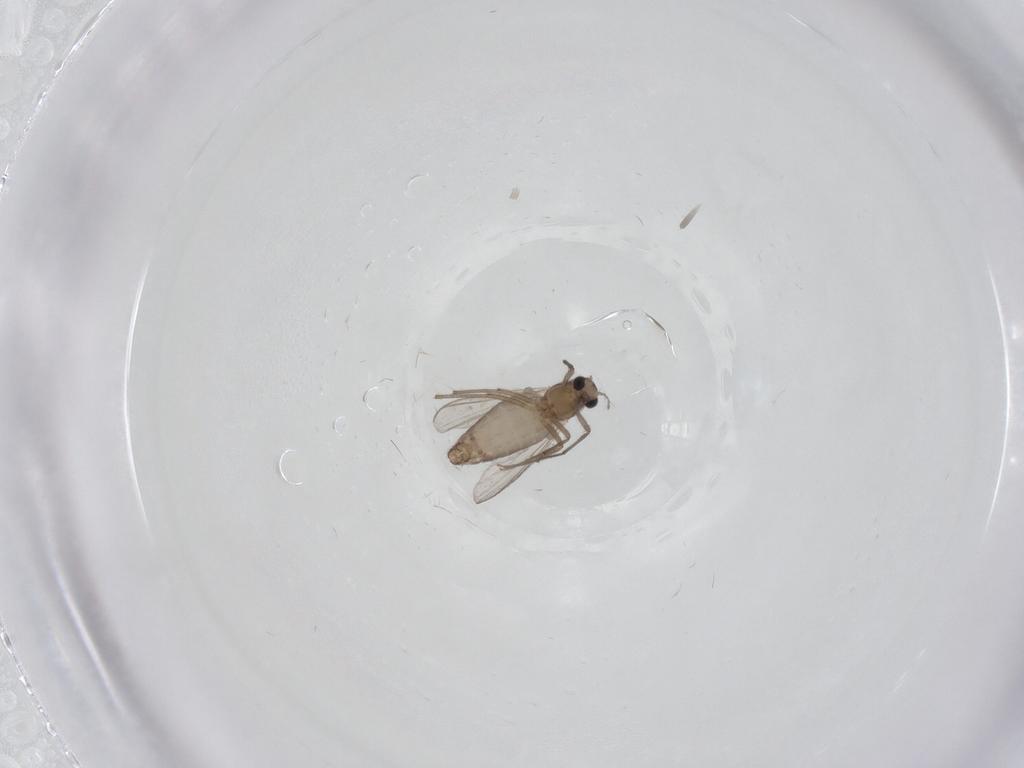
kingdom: Animalia
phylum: Arthropoda
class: Insecta
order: Diptera
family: Chironomidae
